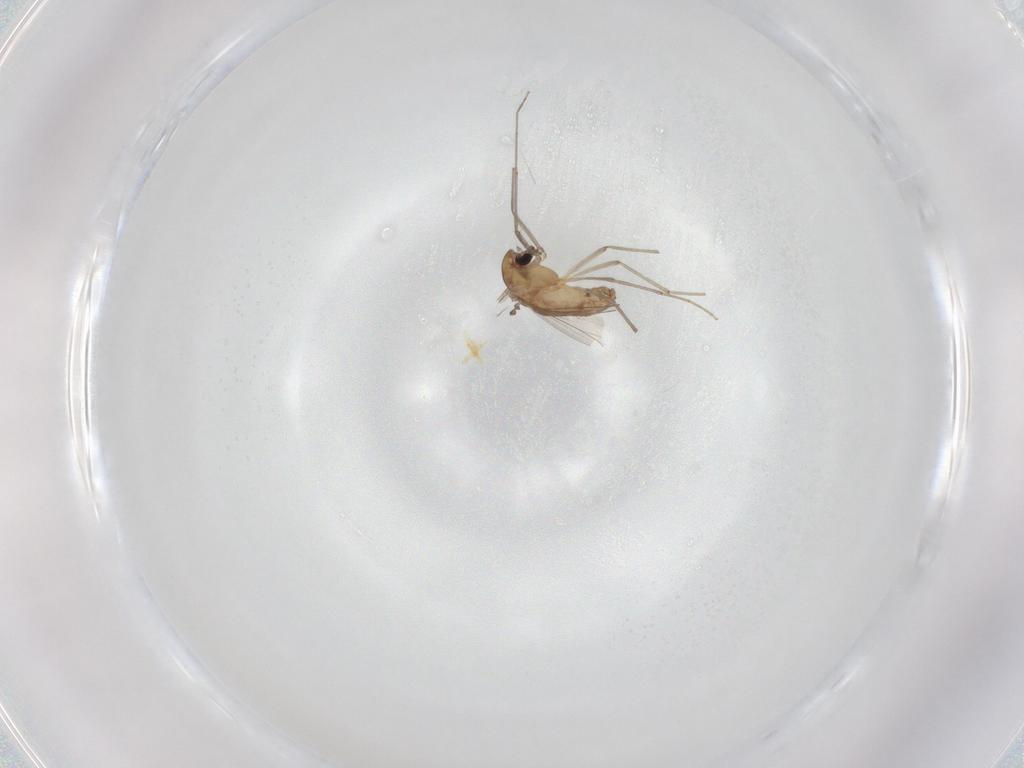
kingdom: Animalia
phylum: Arthropoda
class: Insecta
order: Diptera
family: Chironomidae
